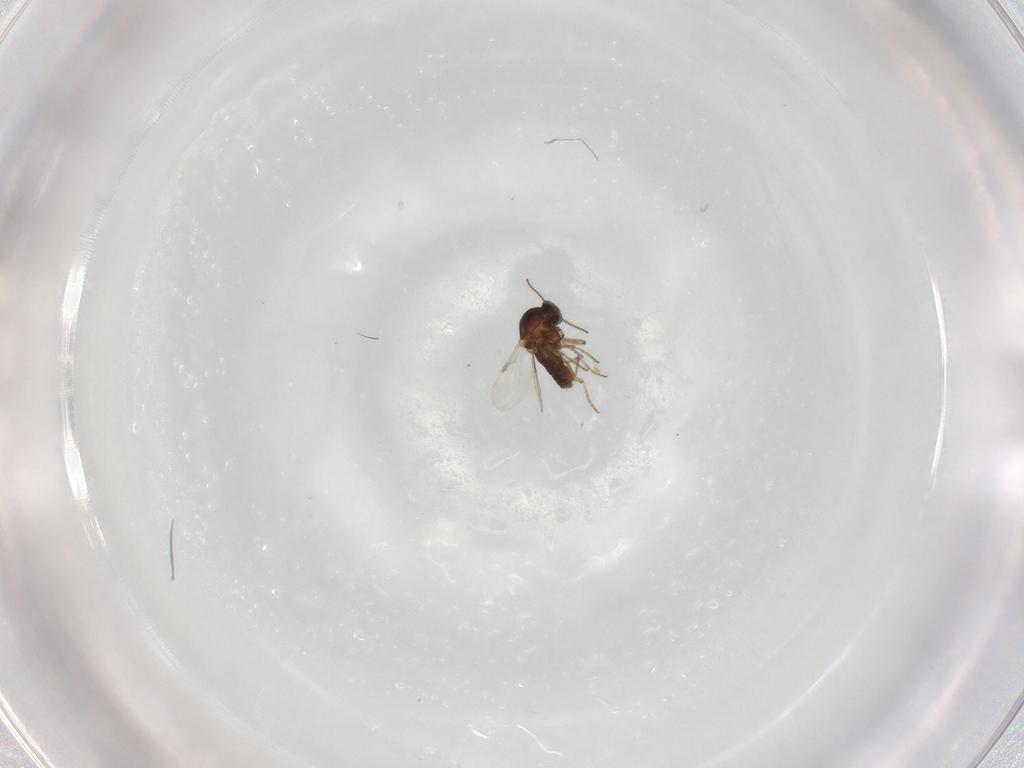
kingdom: Animalia
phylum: Arthropoda
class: Insecta
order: Diptera
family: Ceratopogonidae
